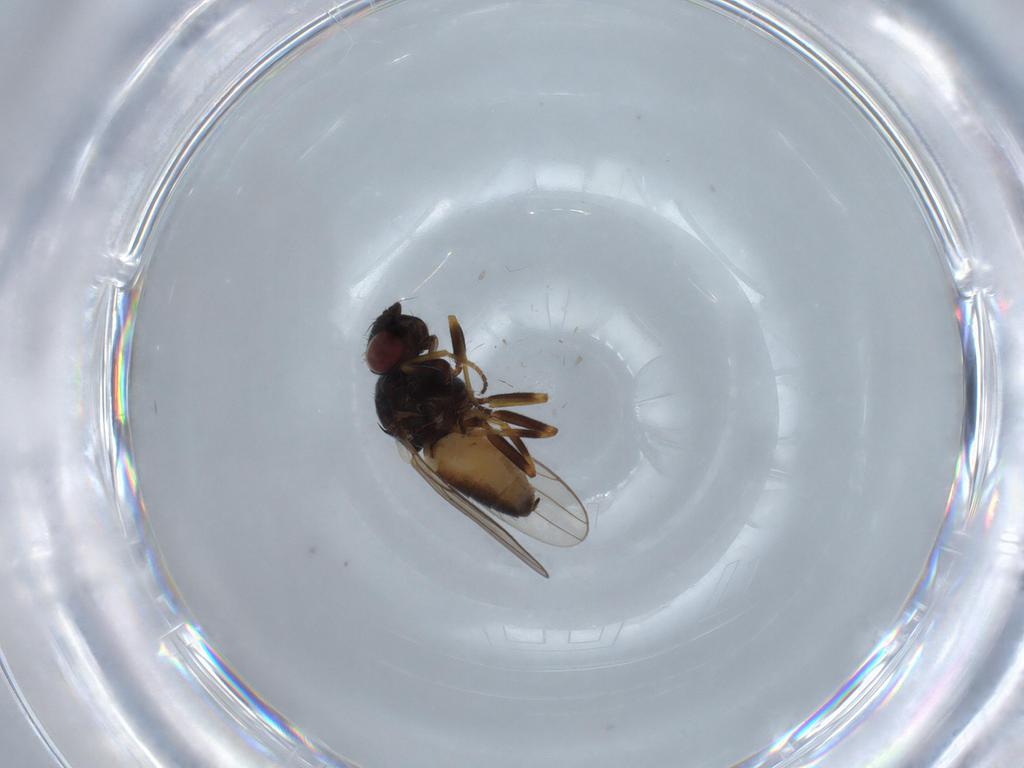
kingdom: Animalia
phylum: Arthropoda
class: Insecta
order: Diptera
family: Chloropidae
